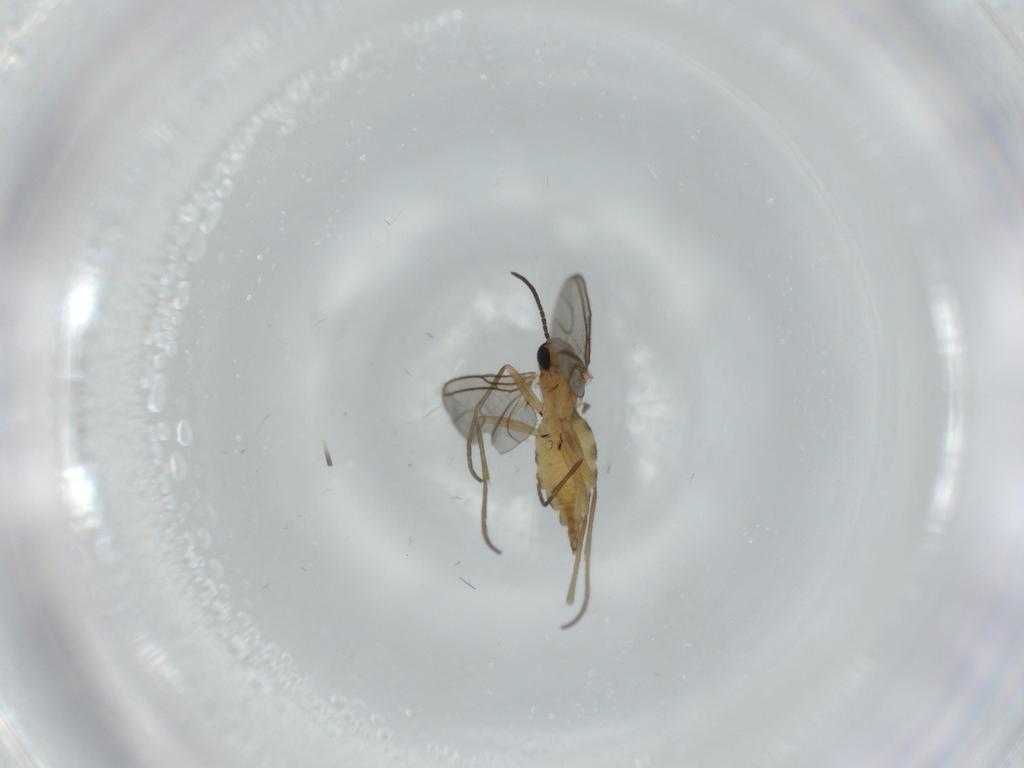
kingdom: Animalia
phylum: Arthropoda
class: Insecta
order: Diptera
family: Sciaridae
